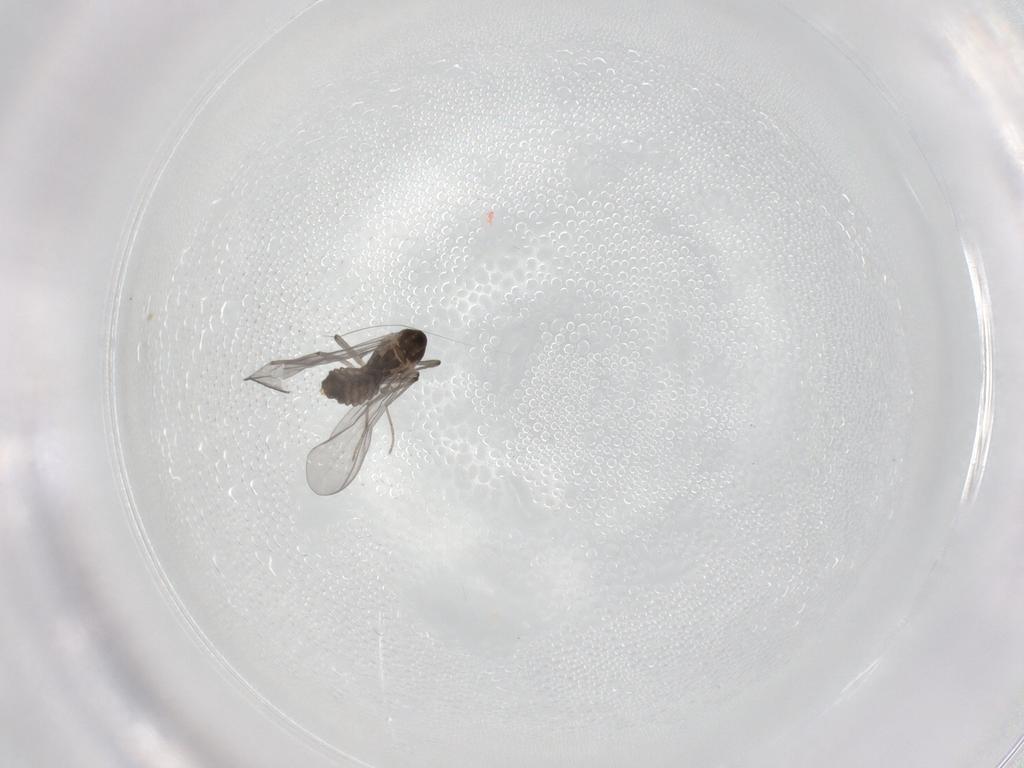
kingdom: Animalia
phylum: Arthropoda
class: Insecta
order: Diptera
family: Chironomidae
